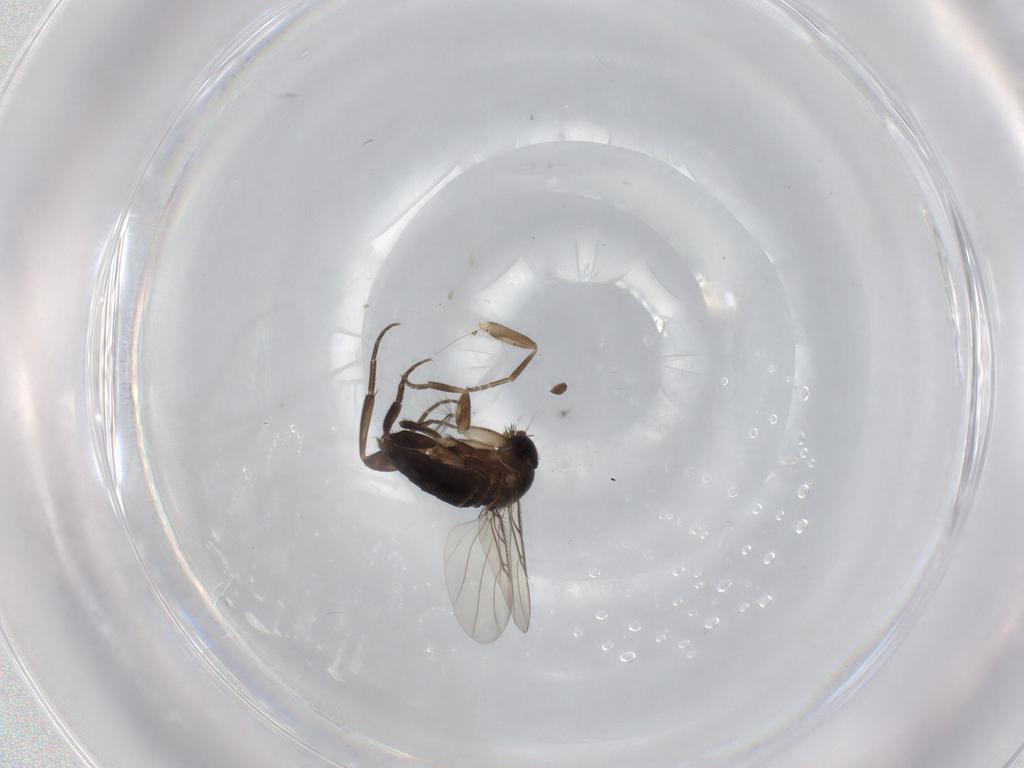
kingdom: Animalia
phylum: Arthropoda
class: Insecta
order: Diptera
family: Phoridae
